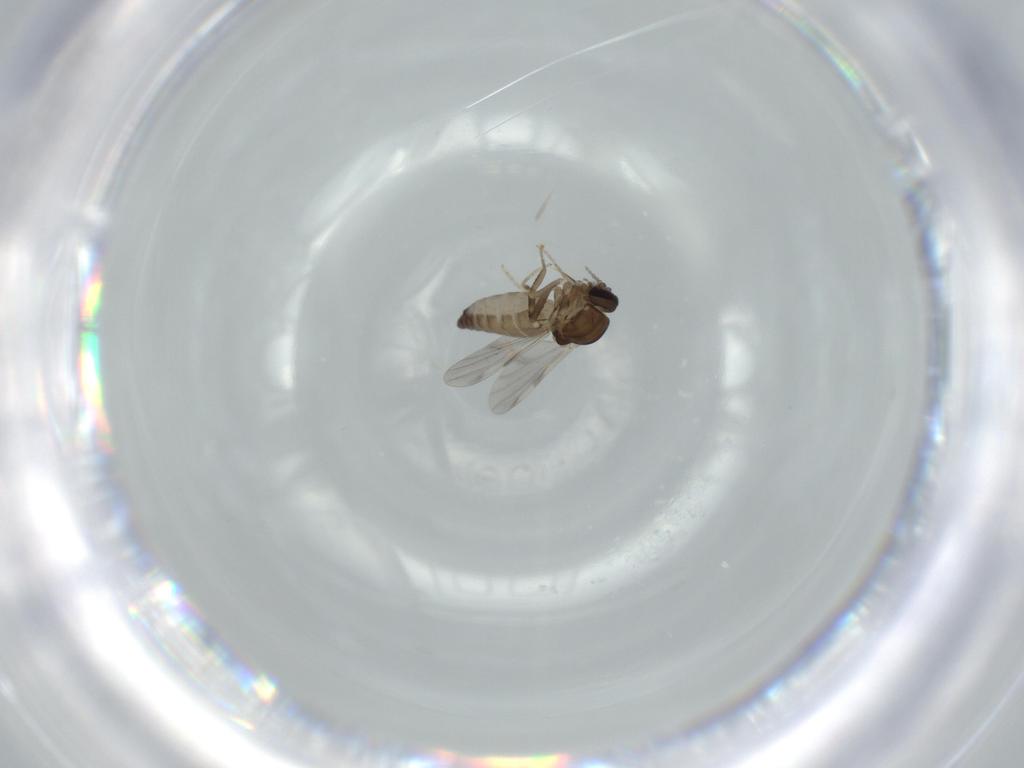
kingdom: Animalia
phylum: Arthropoda
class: Insecta
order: Diptera
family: Ceratopogonidae
